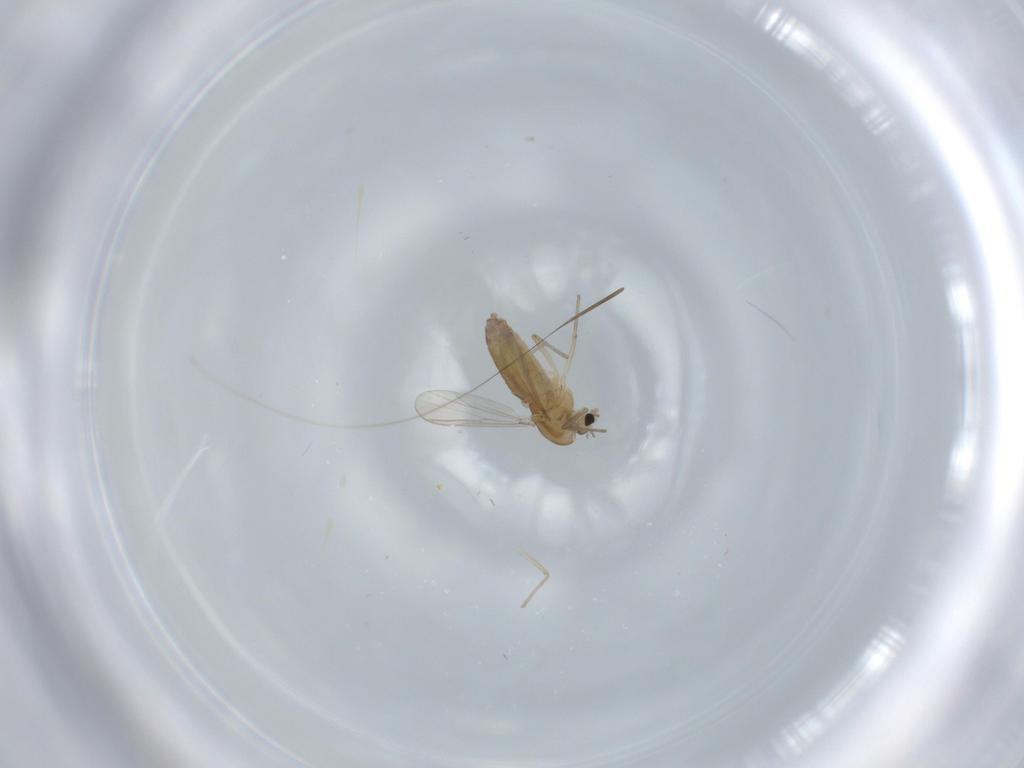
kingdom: Animalia
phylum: Arthropoda
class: Insecta
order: Diptera
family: Chironomidae
